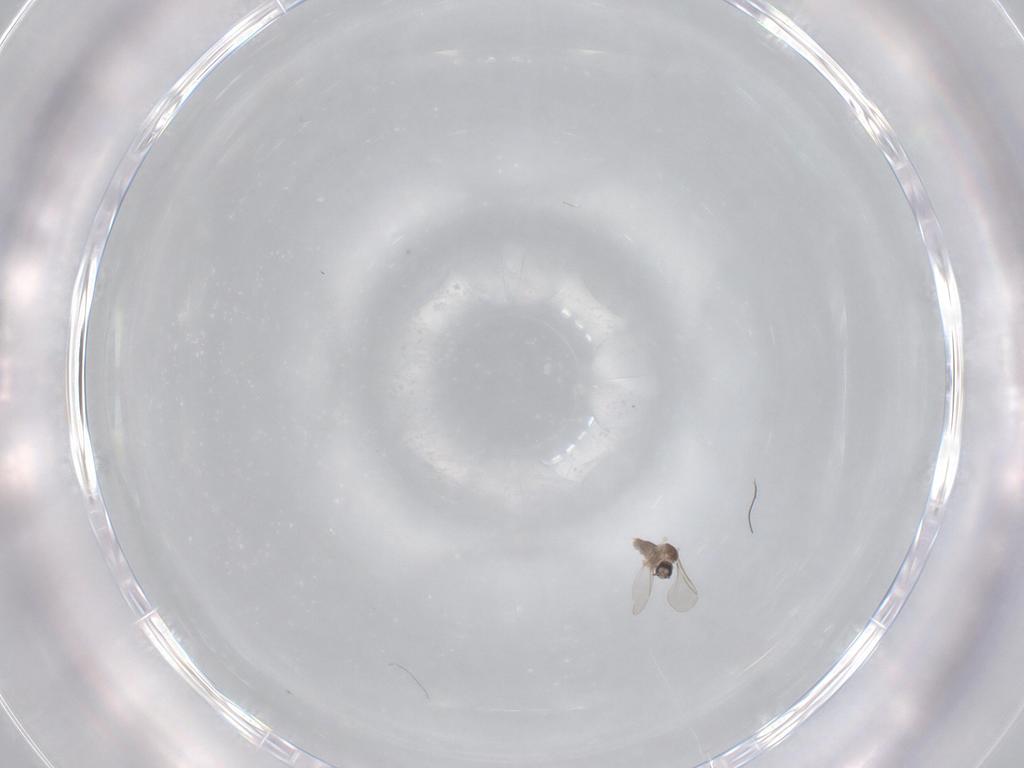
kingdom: Animalia
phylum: Arthropoda
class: Insecta
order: Diptera
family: Cecidomyiidae
